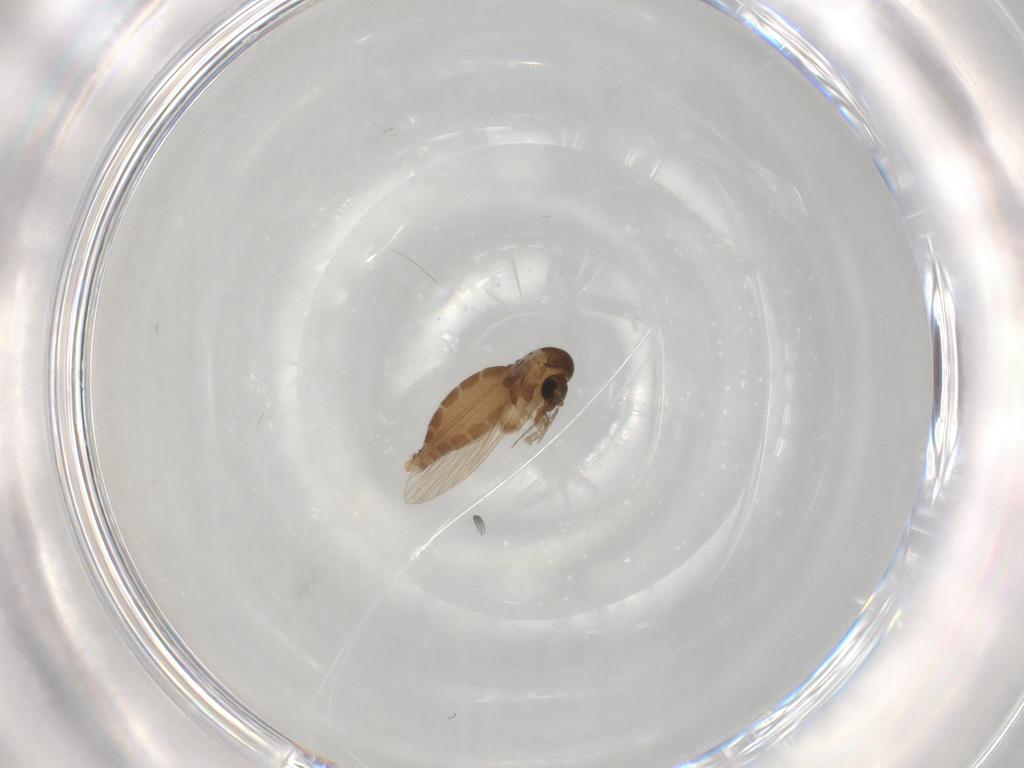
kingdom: Animalia
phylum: Arthropoda
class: Insecta
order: Diptera
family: Psychodidae
